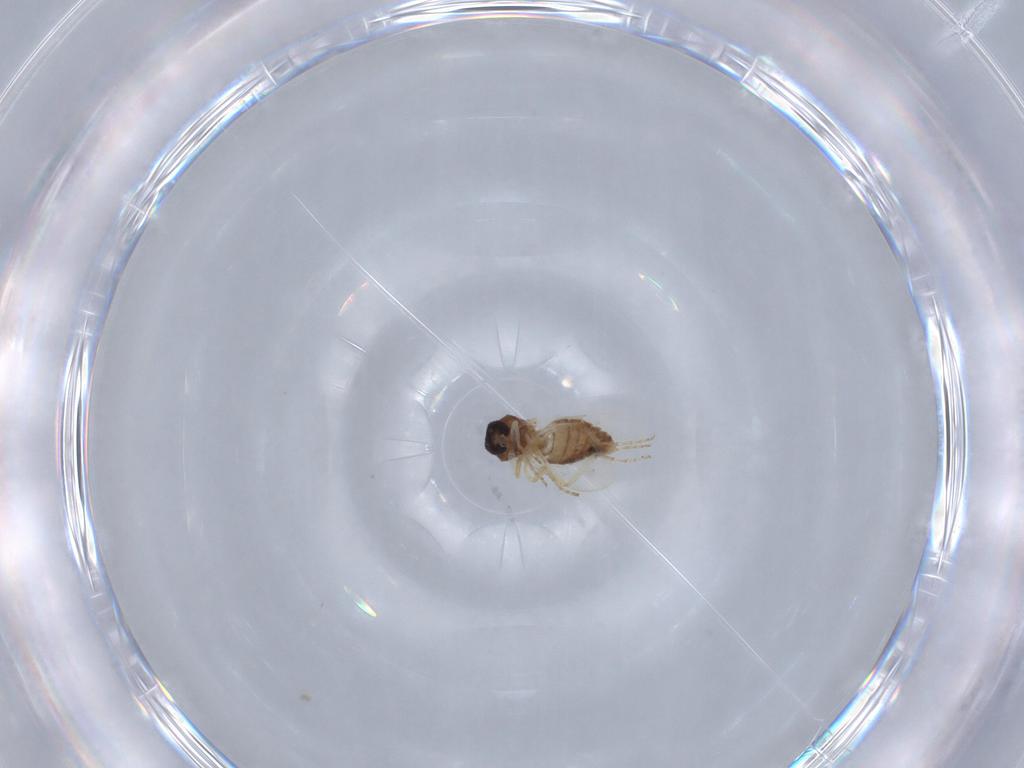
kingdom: Animalia
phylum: Arthropoda
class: Insecta
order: Diptera
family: Ceratopogonidae
